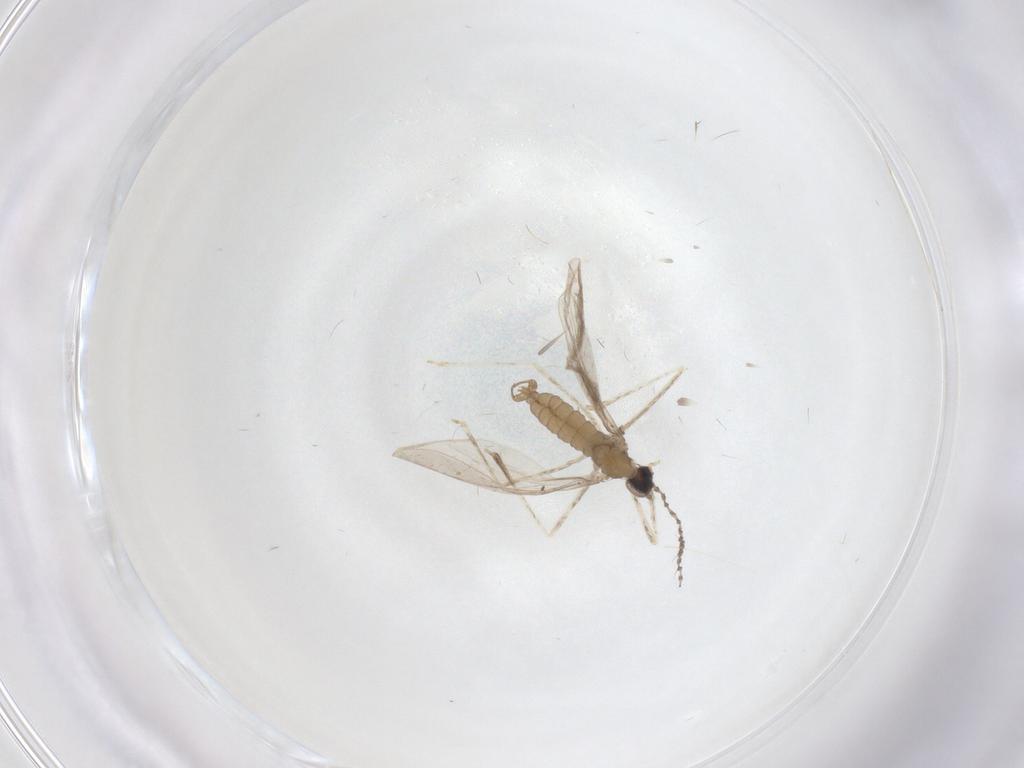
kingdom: Animalia
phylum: Arthropoda
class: Insecta
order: Diptera
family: Cecidomyiidae
